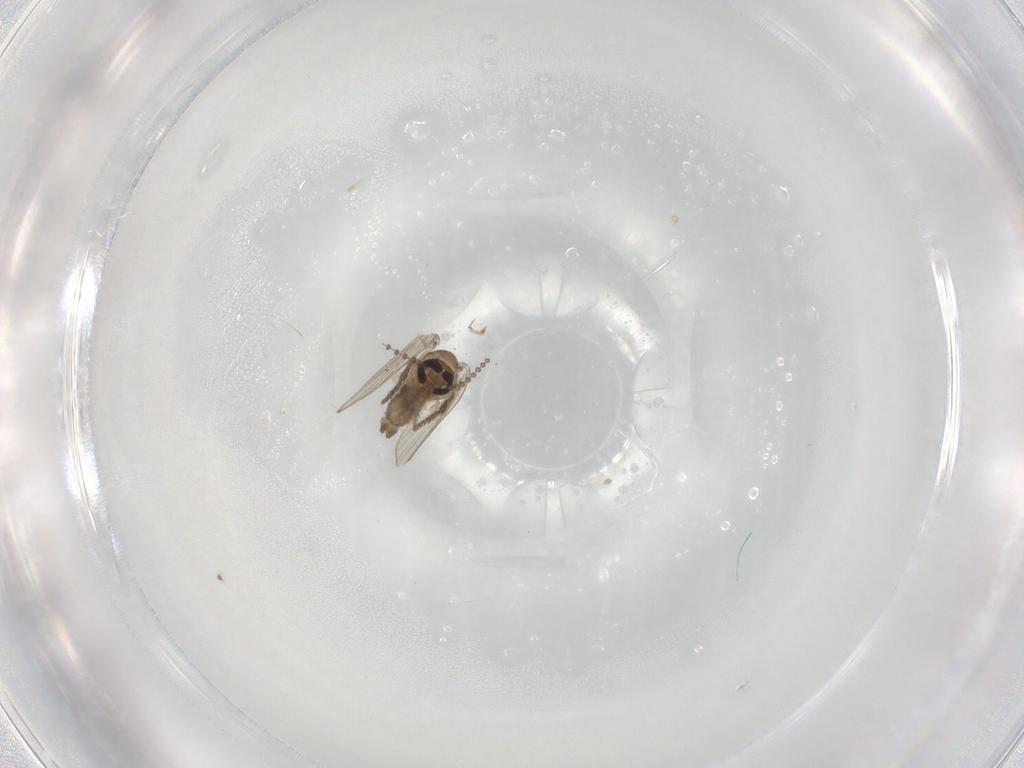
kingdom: Animalia
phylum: Arthropoda
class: Insecta
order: Diptera
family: Psychodidae
